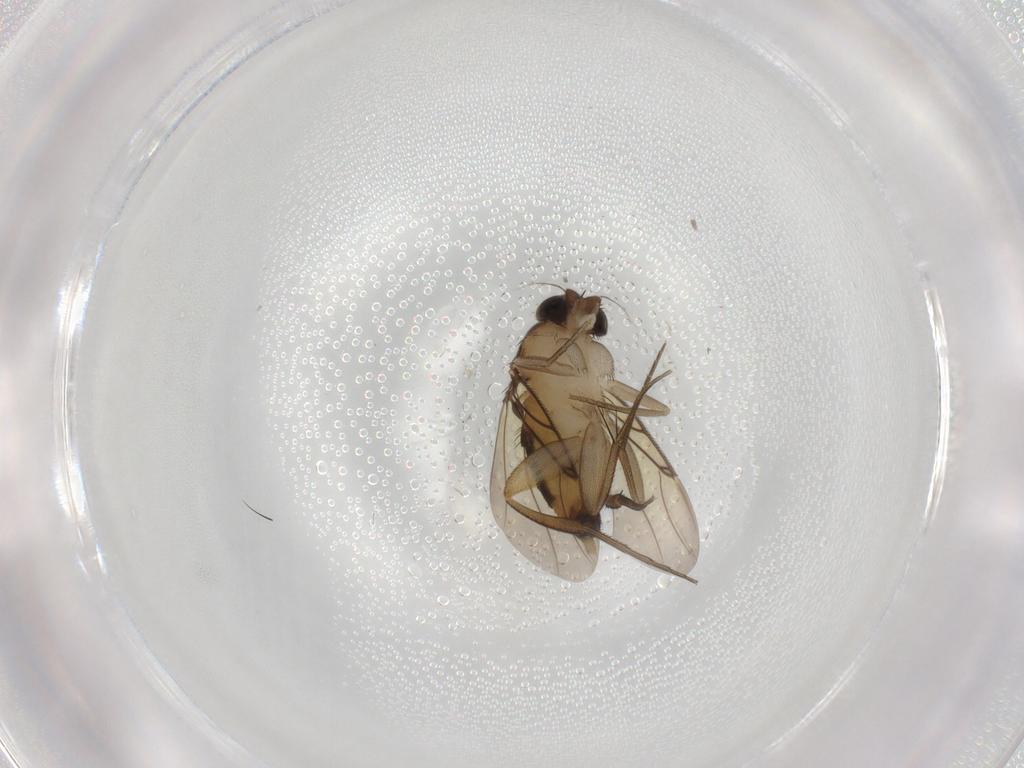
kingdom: Animalia
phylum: Arthropoda
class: Insecta
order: Diptera
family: Phoridae
